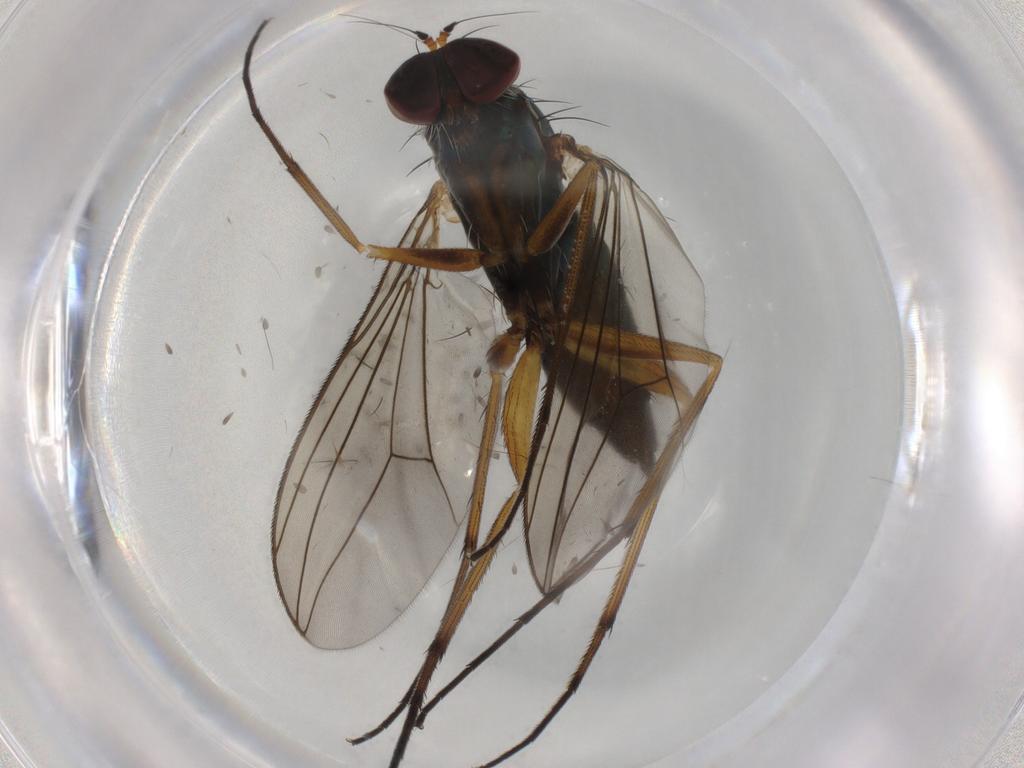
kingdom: Animalia
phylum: Arthropoda
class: Insecta
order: Diptera
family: Dolichopodidae
